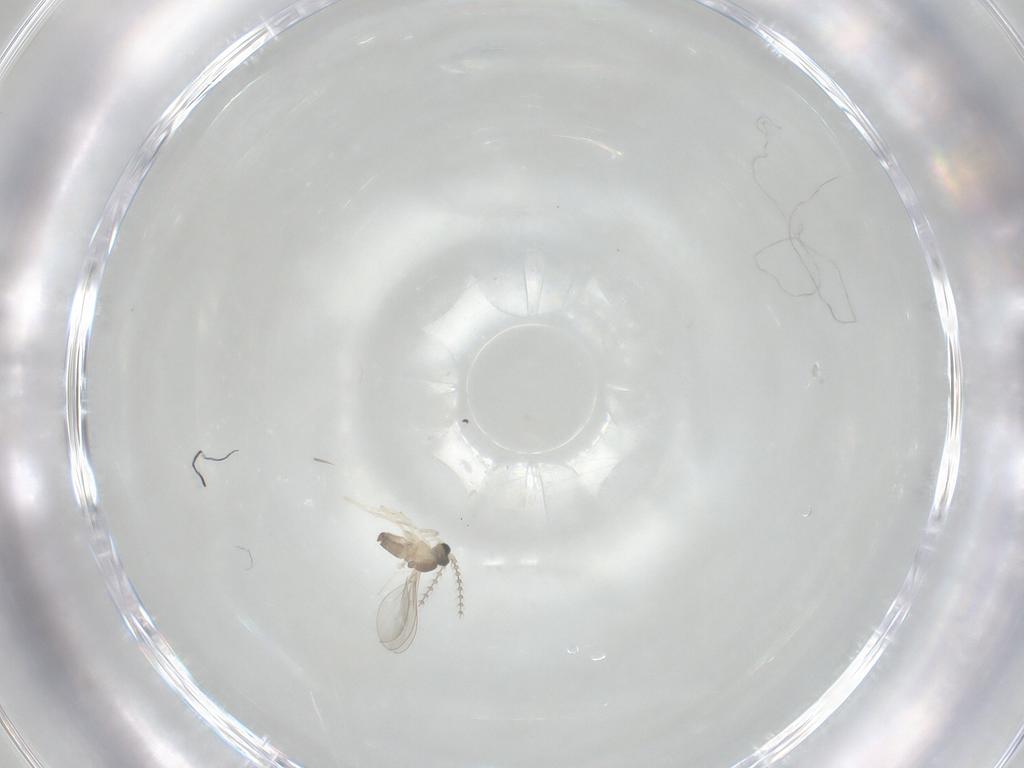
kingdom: Animalia
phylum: Arthropoda
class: Insecta
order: Diptera
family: Cecidomyiidae
